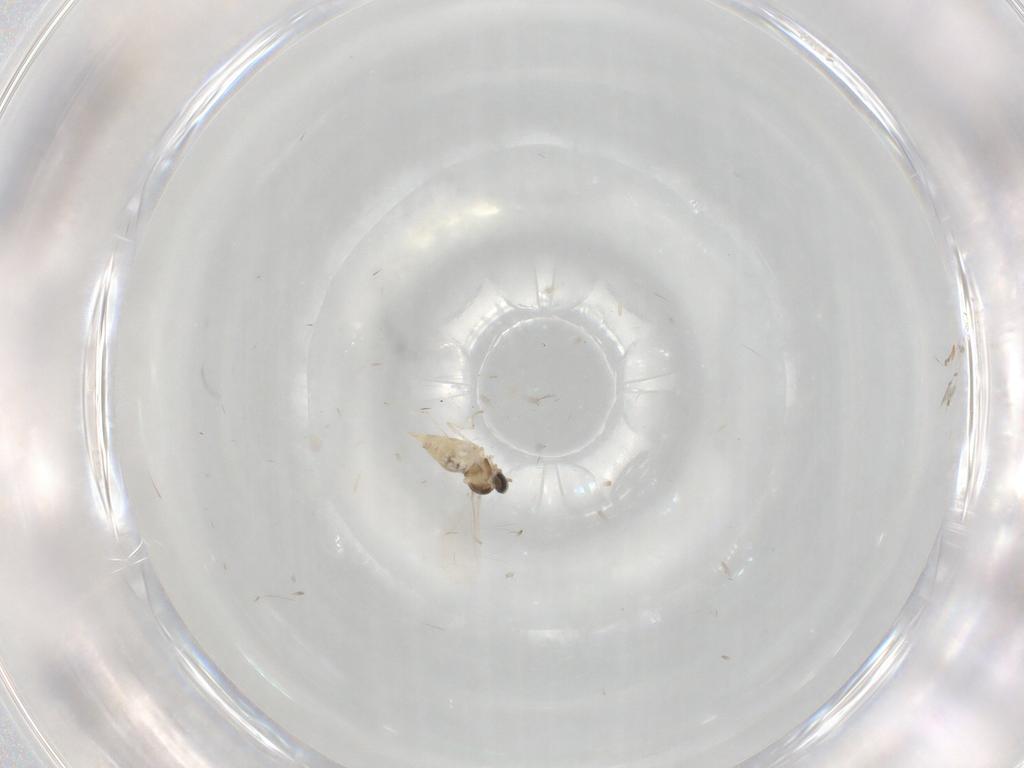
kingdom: Animalia
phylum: Arthropoda
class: Insecta
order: Diptera
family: Cecidomyiidae
